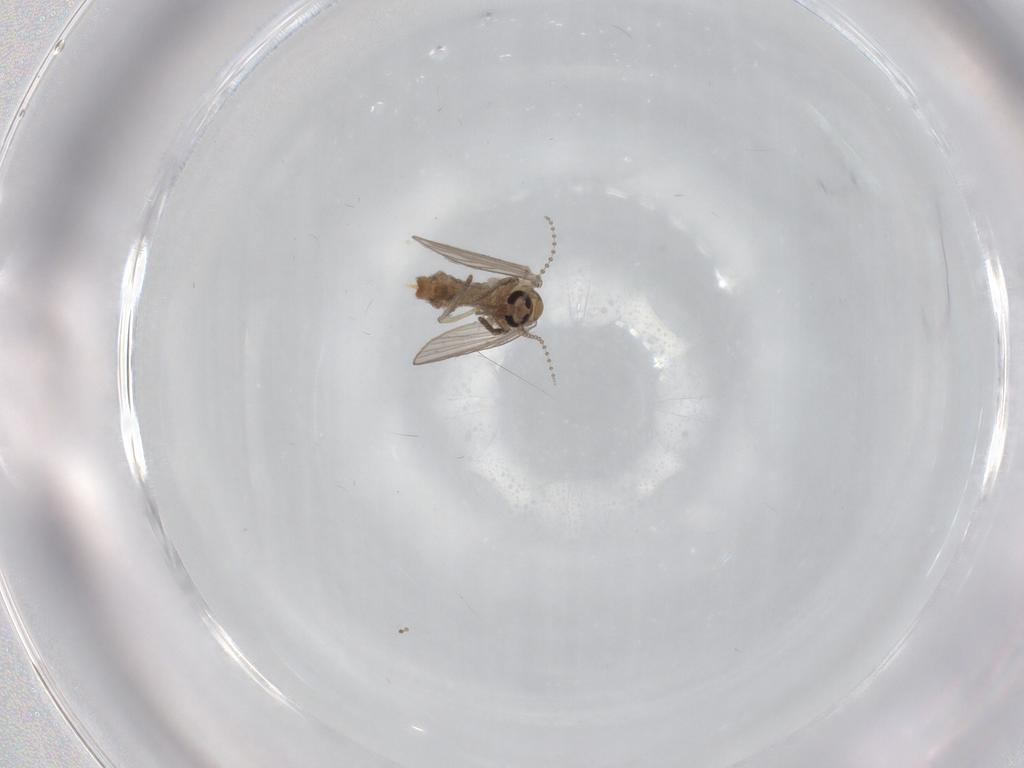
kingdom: Animalia
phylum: Arthropoda
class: Insecta
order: Diptera
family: Psychodidae
